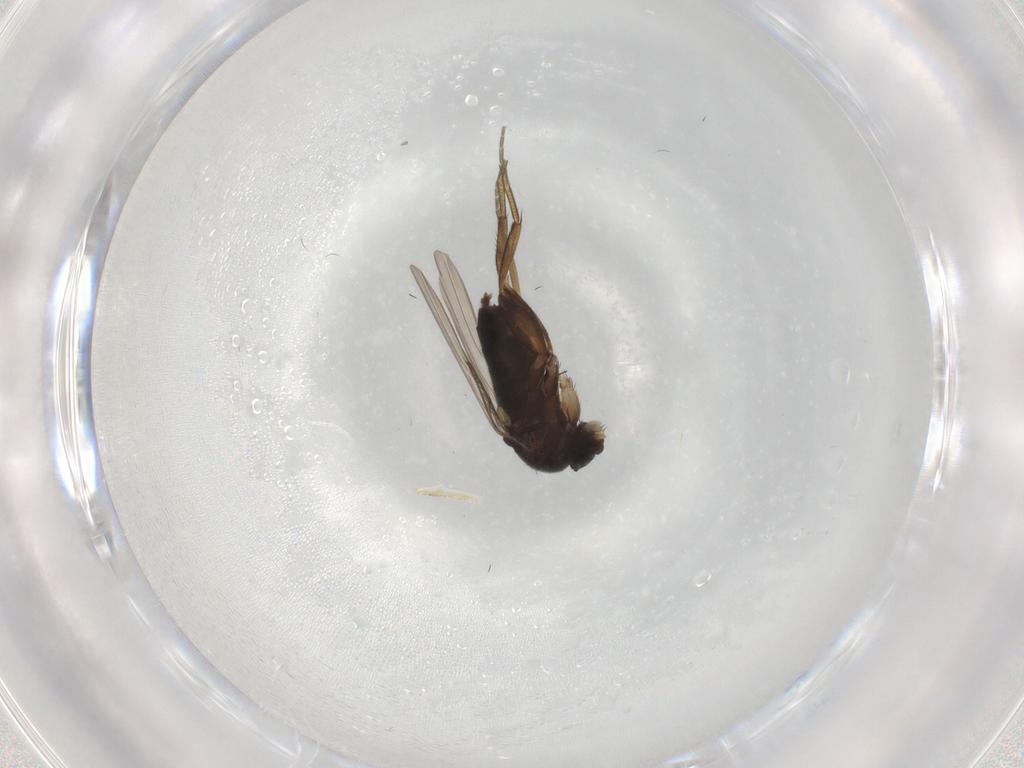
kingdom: Animalia
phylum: Arthropoda
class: Insecta
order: Diptera
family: Phoridae
